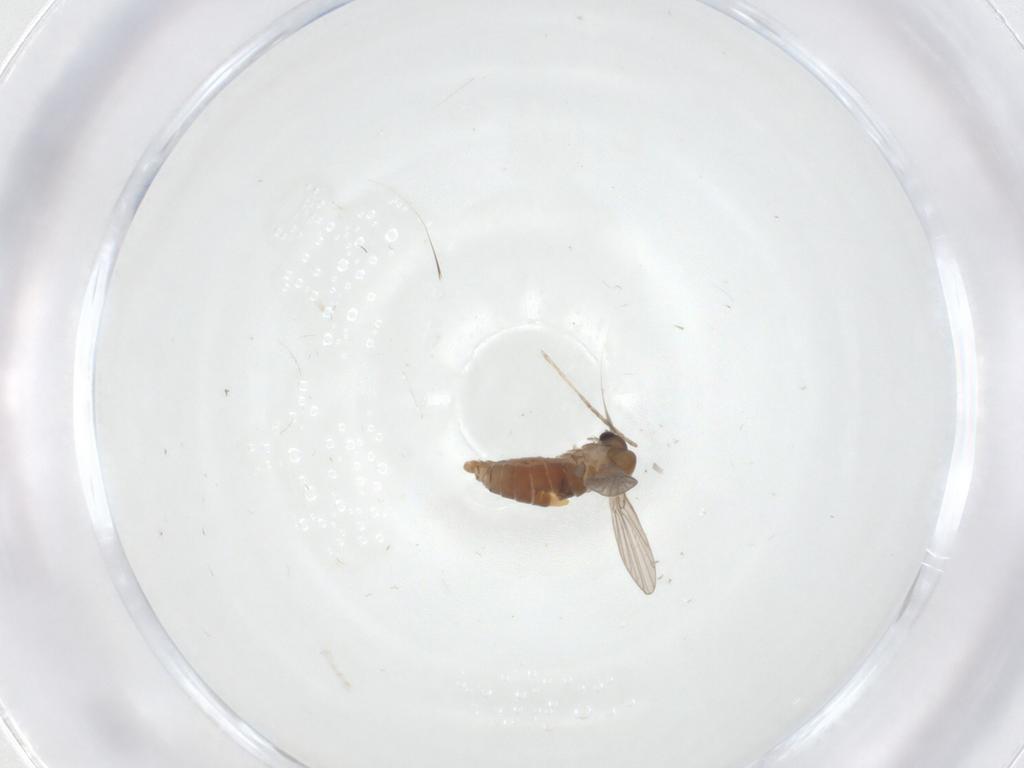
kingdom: Animalia
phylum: Arthropoda
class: Insecta
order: Diptera
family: Cecidomyiidae
